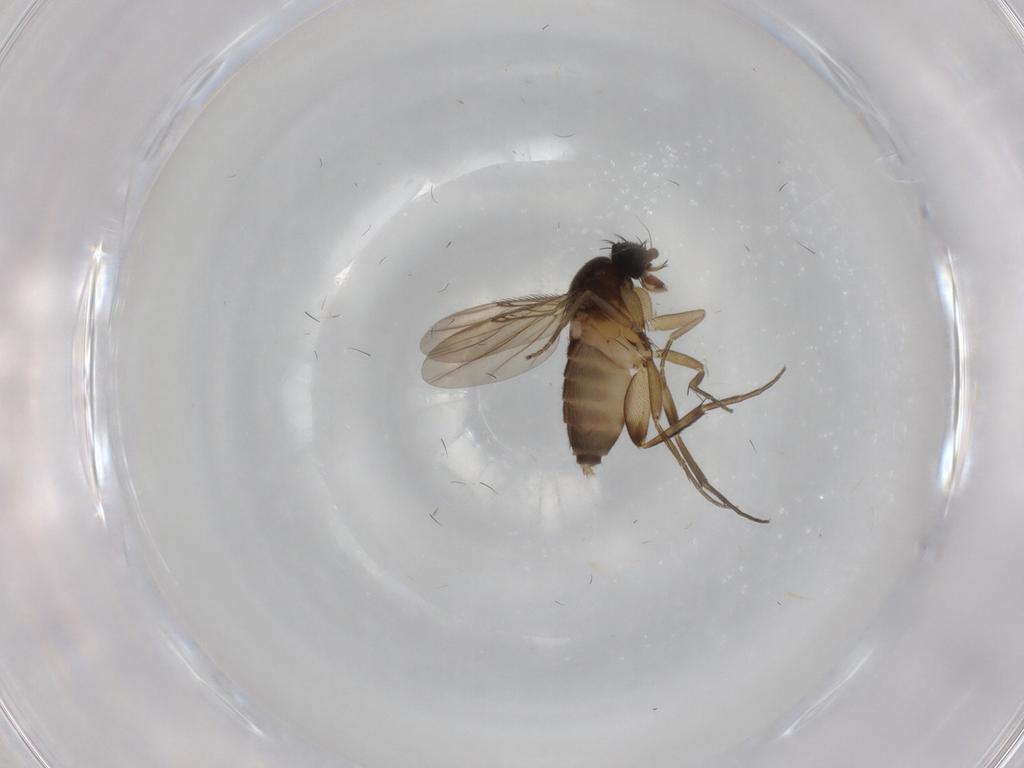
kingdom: Animalia
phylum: Arthropoda
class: Insecta
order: Diptera
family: Phoridae
